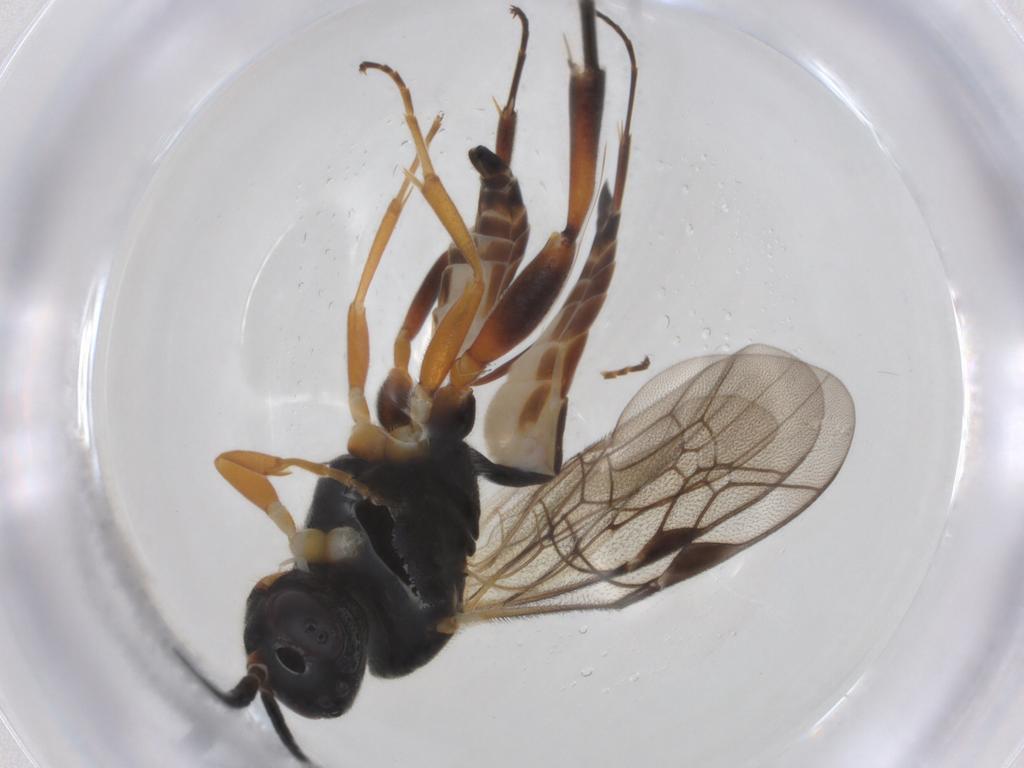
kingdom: Animalia
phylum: Arthropoda
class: Insecta
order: Hymenoptera
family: Ichneumonidae
